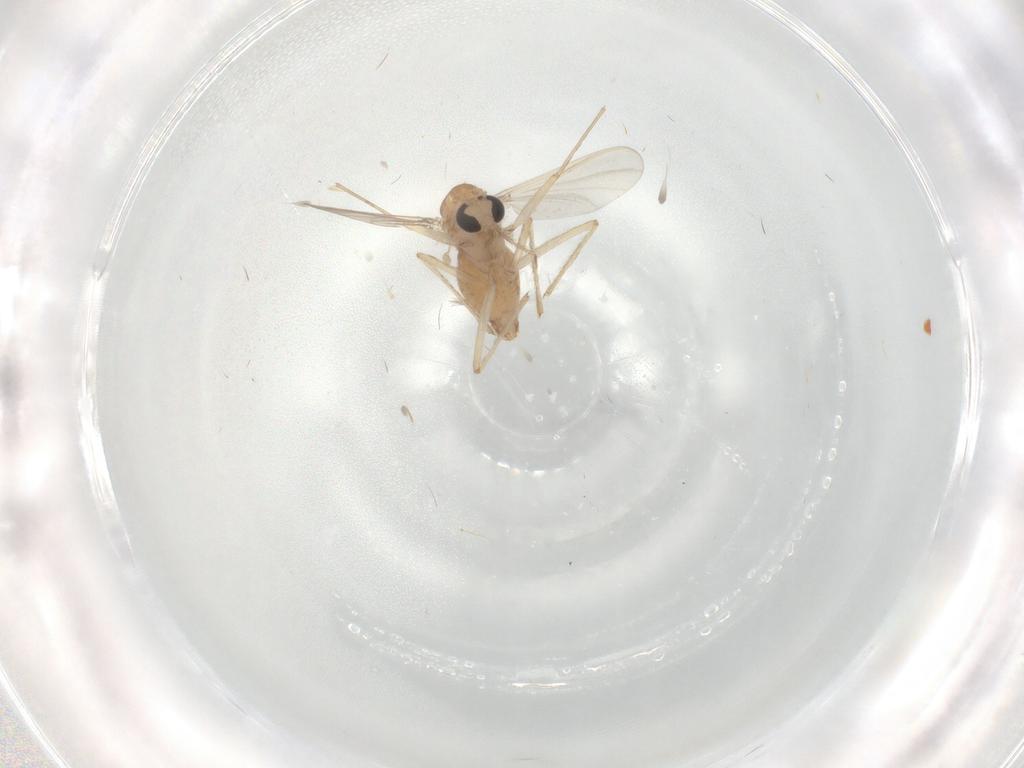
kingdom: Animalia
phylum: Arthropoda
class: Insecta
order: Diptera
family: Chironomidae
